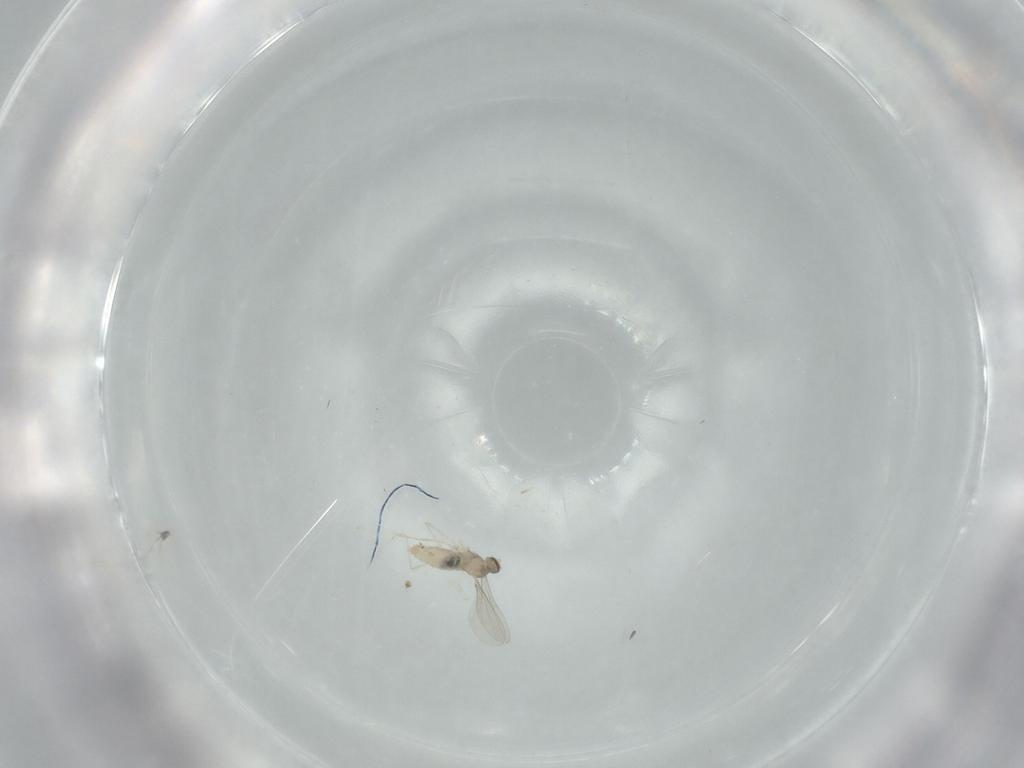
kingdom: Animalia
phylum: Arthropoda
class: Insecta
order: Diptera
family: Cecidomyiidae
